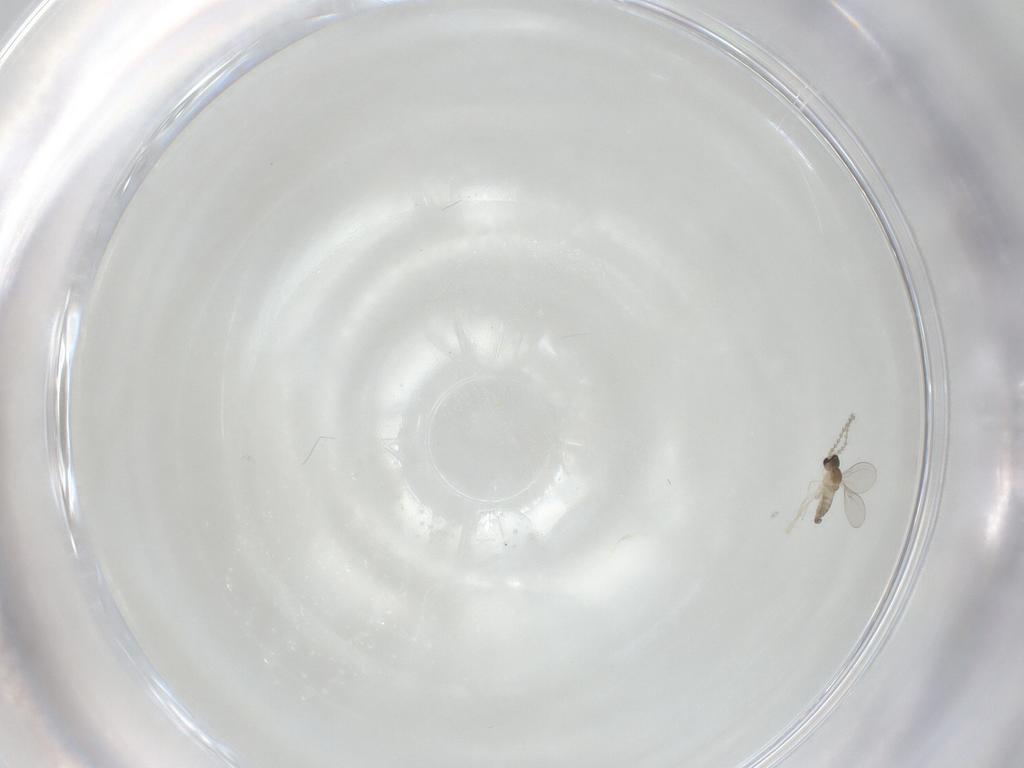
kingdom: Animalia
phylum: Arthropoda
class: Insecta
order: Diptera
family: Cecidomyiidae
